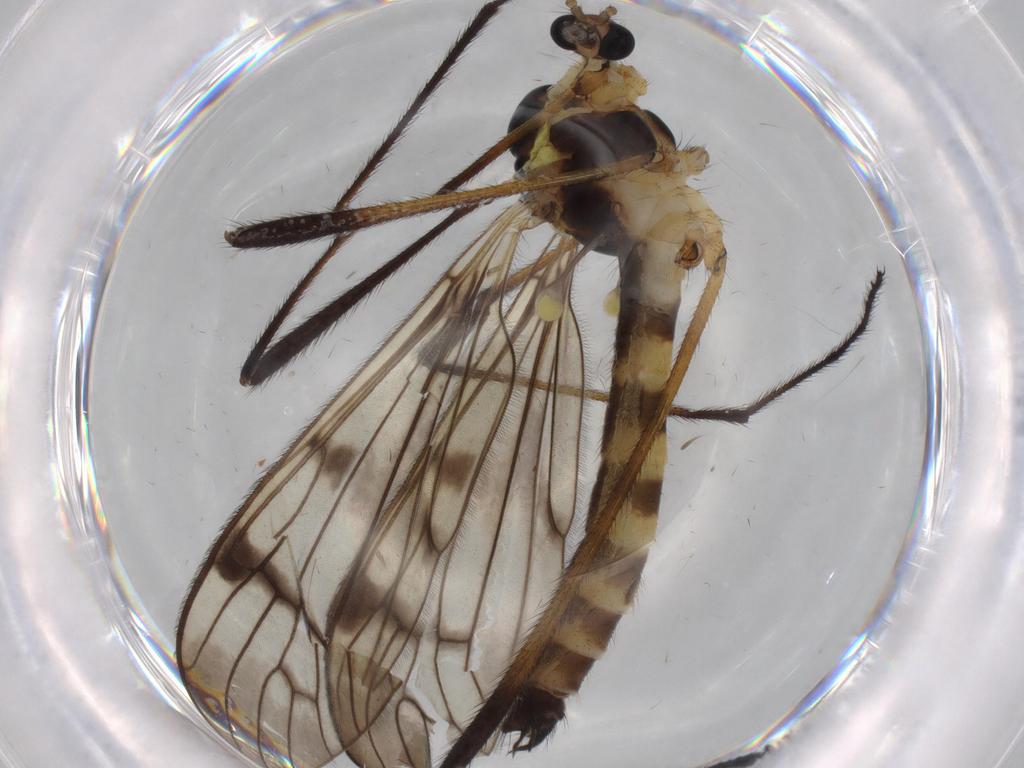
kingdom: Animalia
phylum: Arthropoda
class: Insecta
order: Diptera
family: Limoniidae
